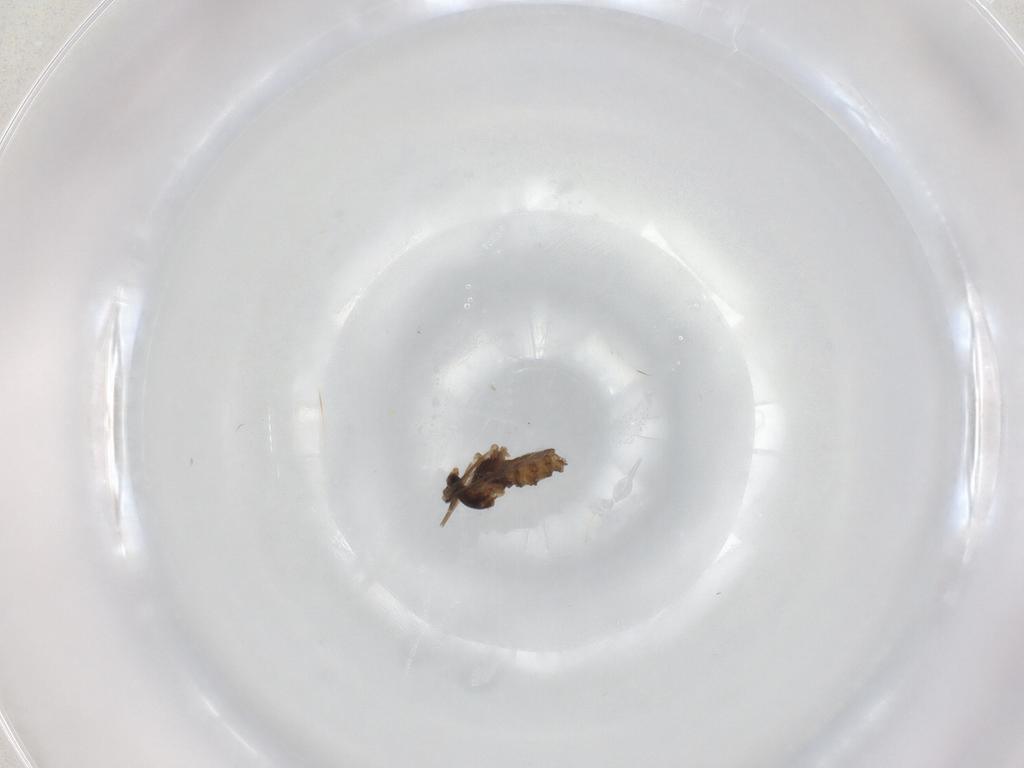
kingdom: Animalia
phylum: Arthropoda
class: Insecta
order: Diptera
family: Cecidomyiidae
